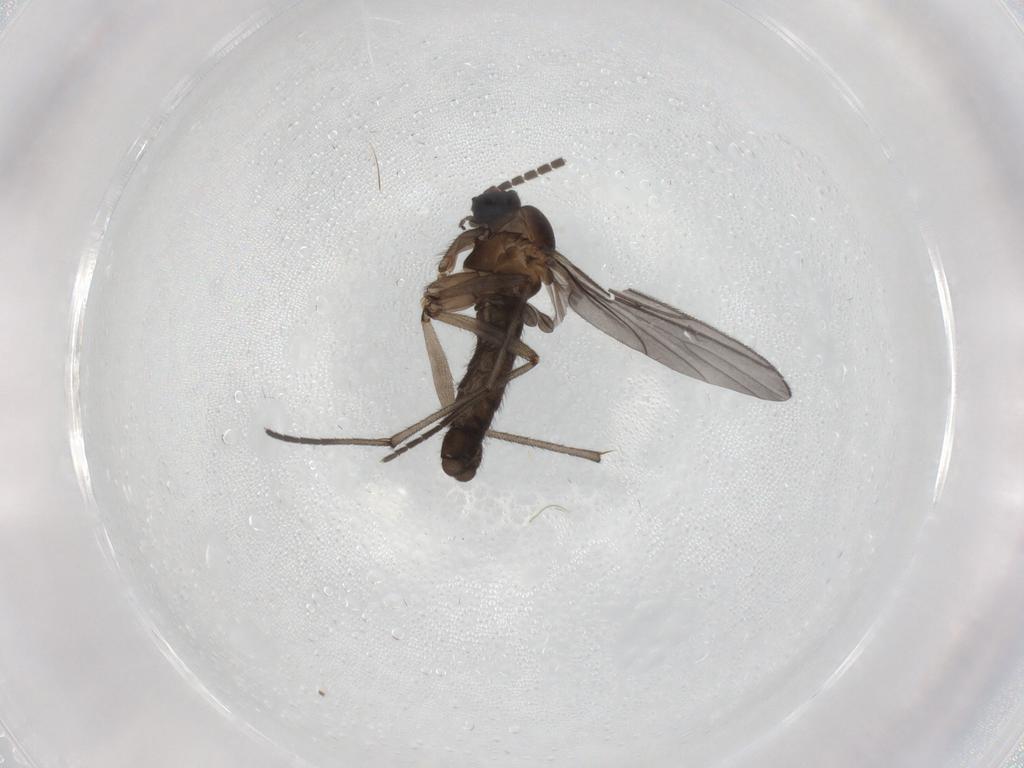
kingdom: Animalia
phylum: Arthropoda
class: Insecta
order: Diptera
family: Sciaridae
